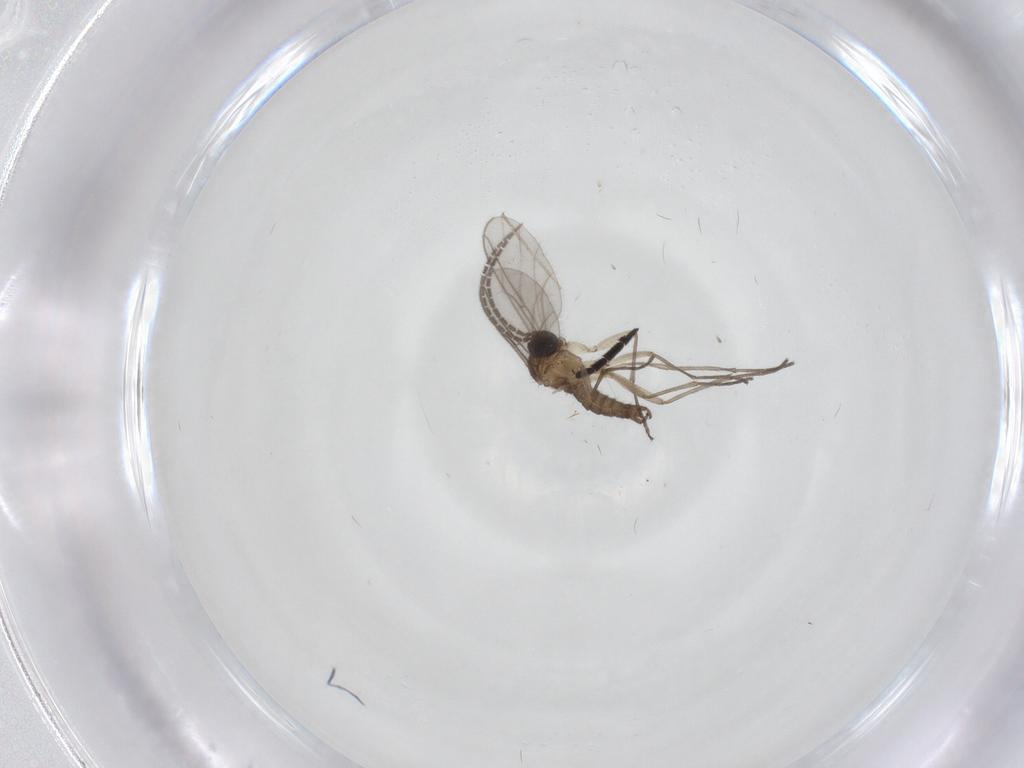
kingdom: Animalia
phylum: Arthropoda
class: Insecta
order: Diptera
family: Sciaridae
